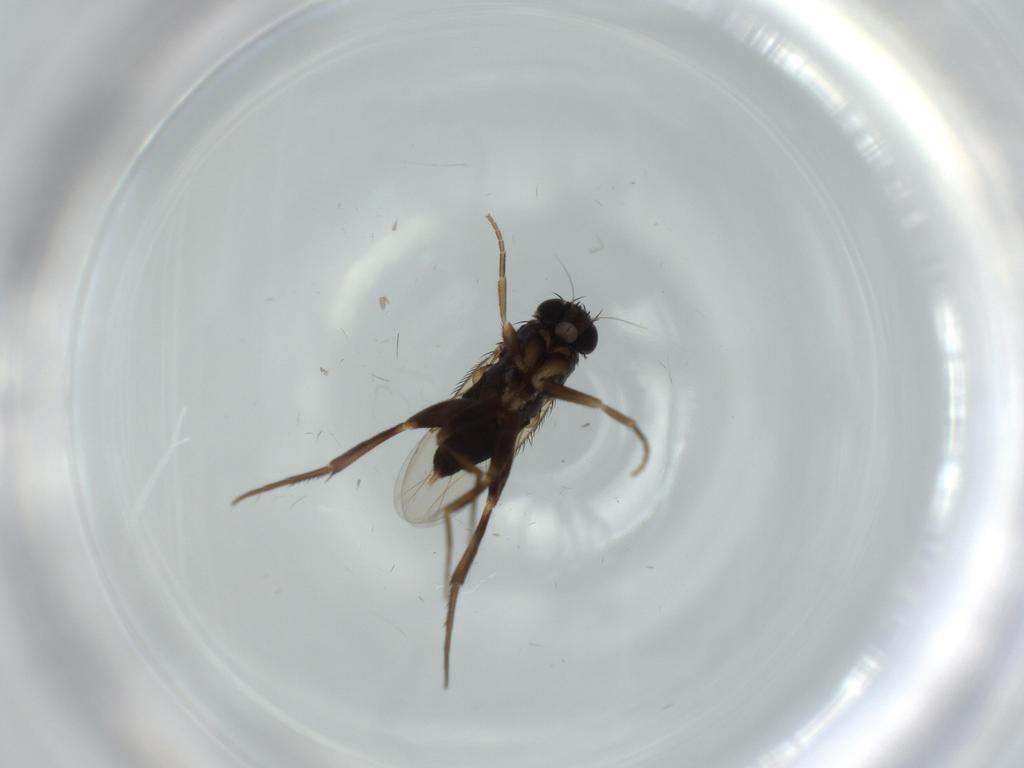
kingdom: Animalia
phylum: Arthropoda
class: Insecta
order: Diptera
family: Phoridae
